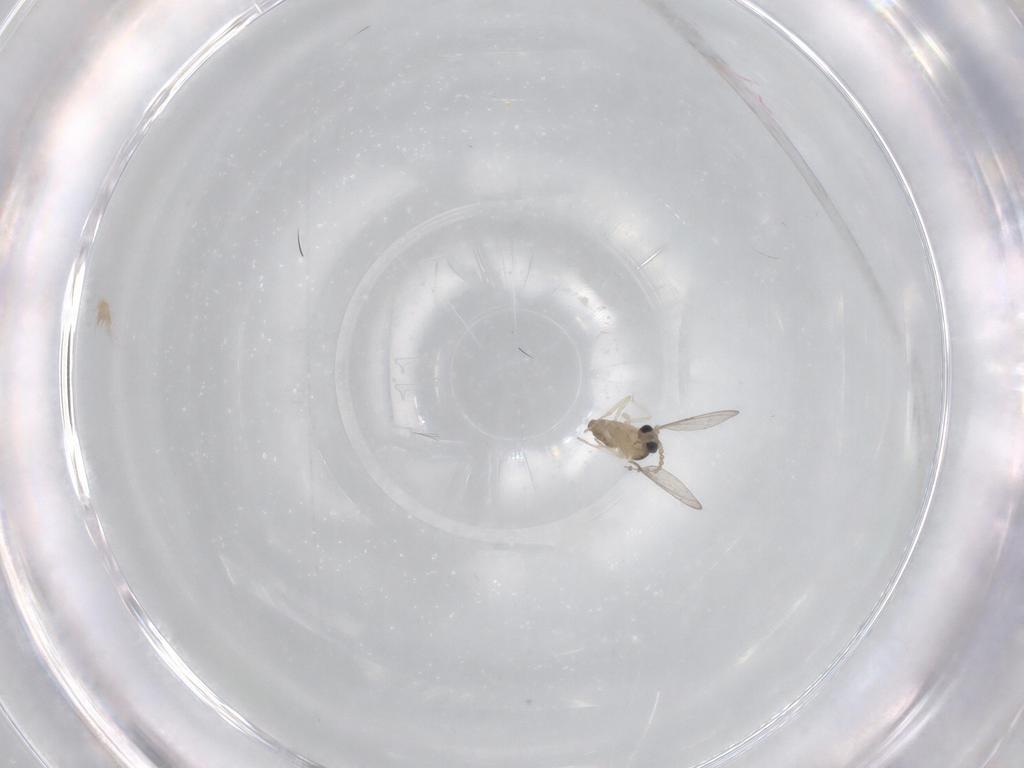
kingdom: Animalia
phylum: Arthropoda
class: Insecta
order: Diptera
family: Cecidomyiidae
